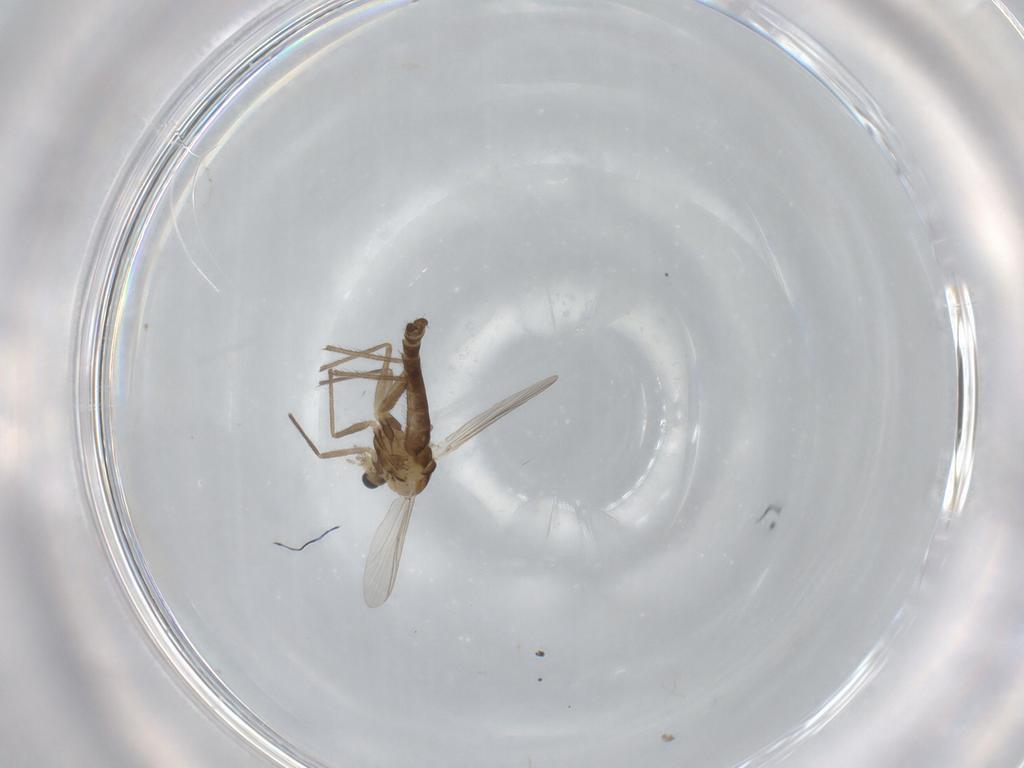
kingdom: Animalia
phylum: Arthropoda
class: Insecta
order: Diptera
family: Chironomidae
